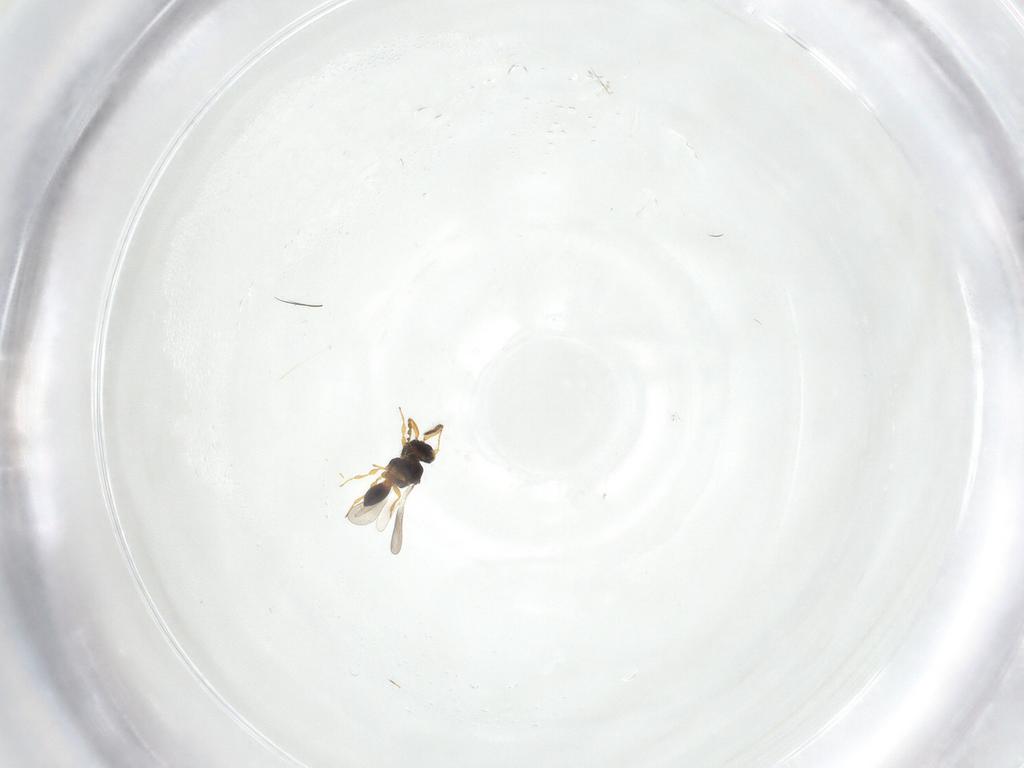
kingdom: Animalia
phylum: Arthropoda
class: Insecta
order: Hymenoptera
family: Platygastridae
